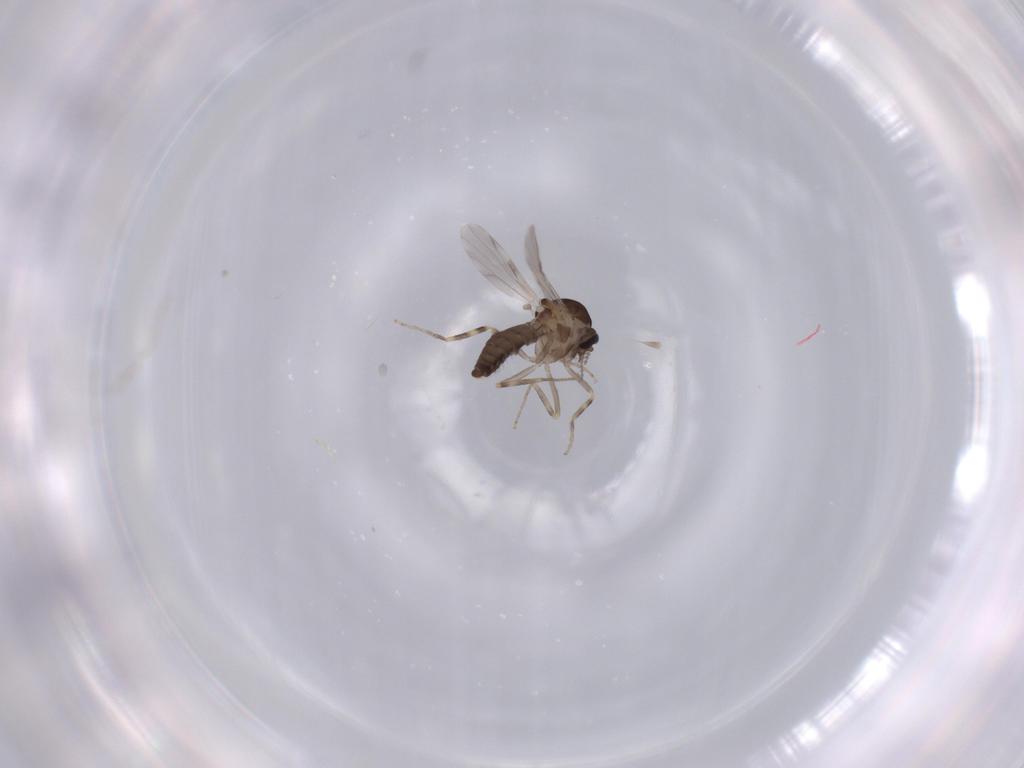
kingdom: Animalia
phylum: Arthropoda
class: Insecta
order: Diptera
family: Ceratopogonidae
